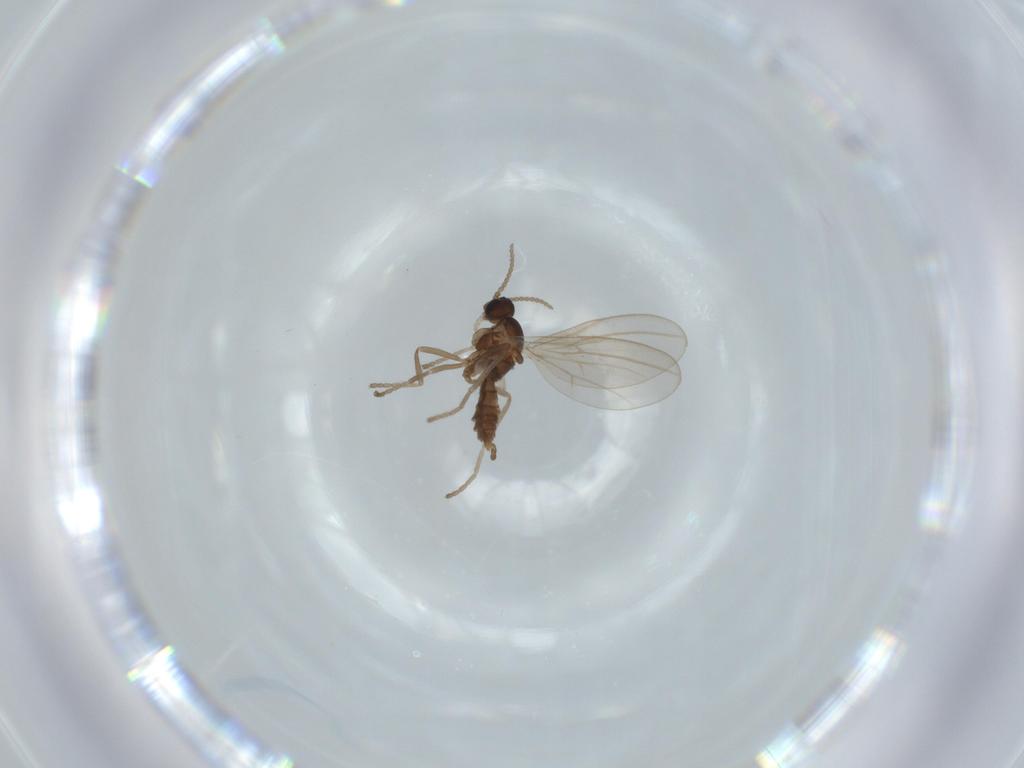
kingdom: Animalia
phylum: Arthropoda
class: Insecta
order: Diptera
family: Cecidomyiidae
